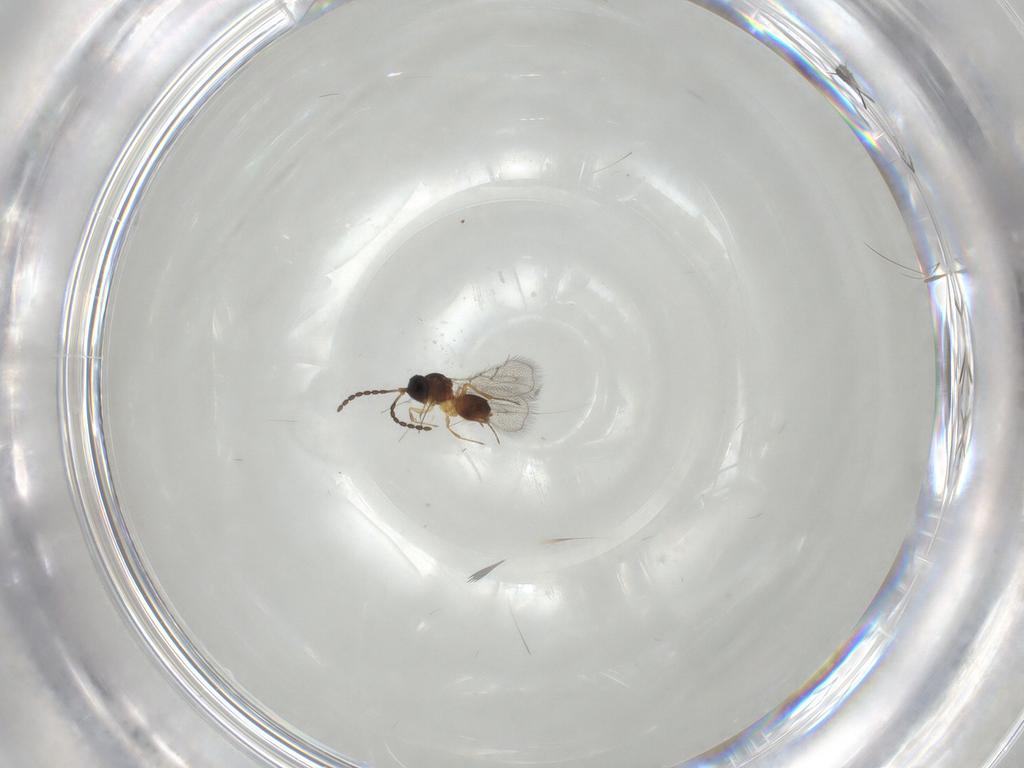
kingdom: Animalia
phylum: Arthropoda
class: Insecta
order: Hymenoptera
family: Figitidae
